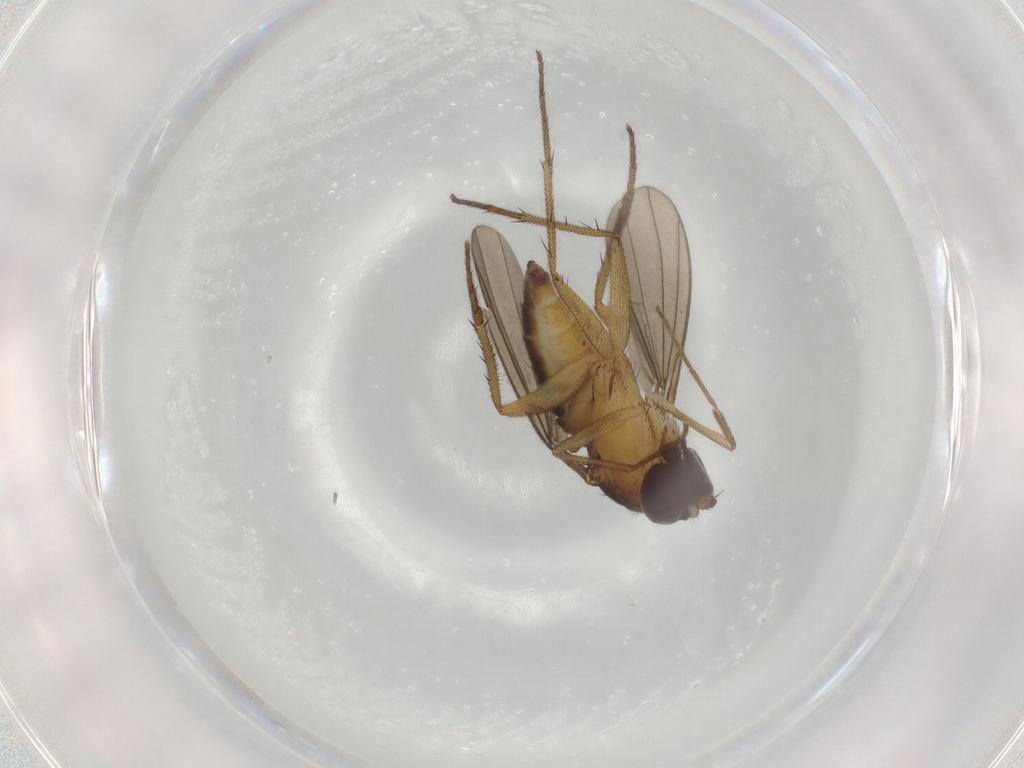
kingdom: Animalia
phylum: Arthropoda
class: Insecta
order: Diptera
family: Dolichopodidae
